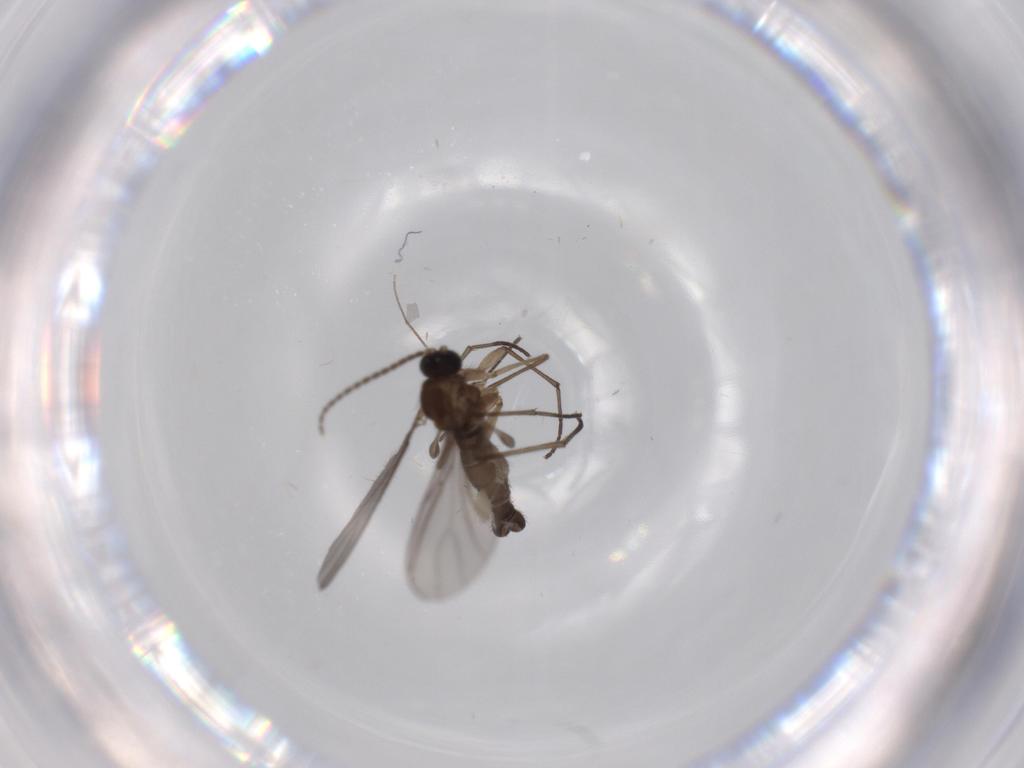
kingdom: Animalia
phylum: Arthropoda
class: Insecta
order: Diptera
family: Sciaridae
